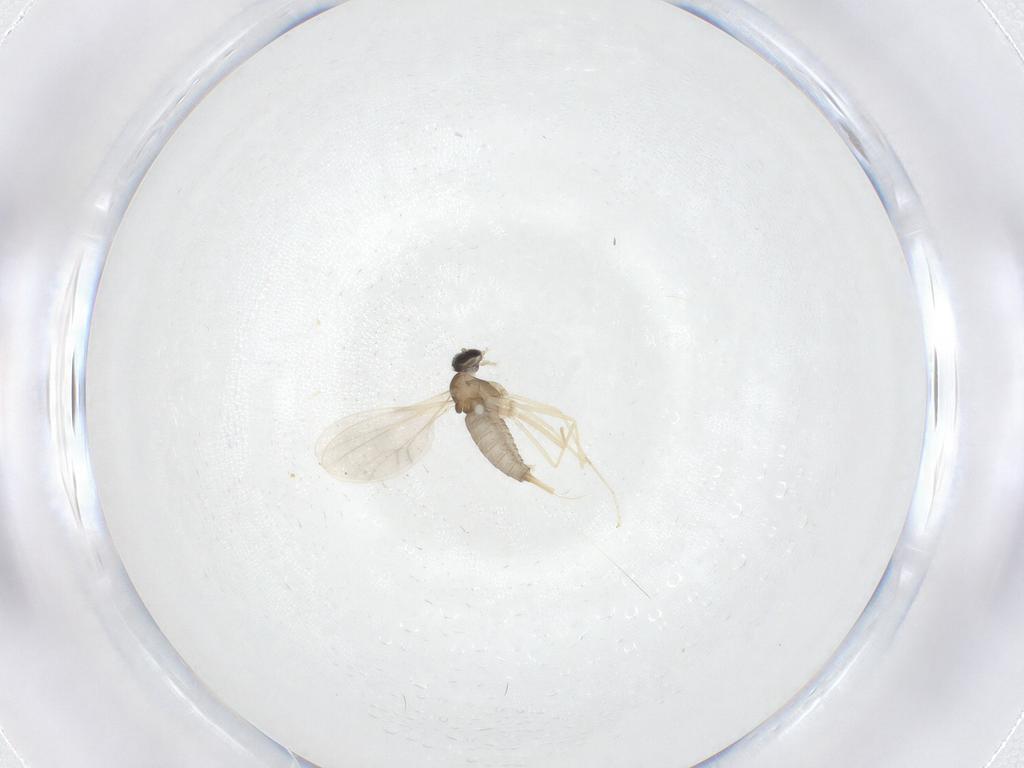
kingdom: Animalia
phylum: Arthropoda
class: Insecta
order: Diptera
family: Cecidomyiidae
